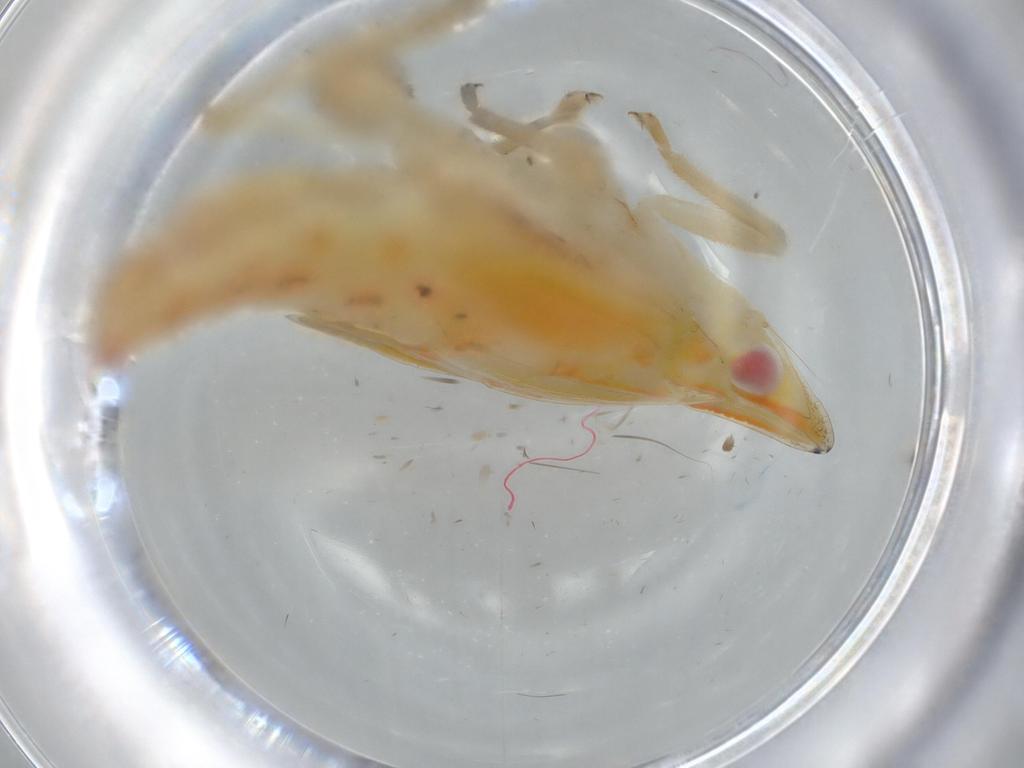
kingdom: Animalia
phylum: Arthropoda
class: Insecta
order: Hemiptera
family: Tropiduchidae
